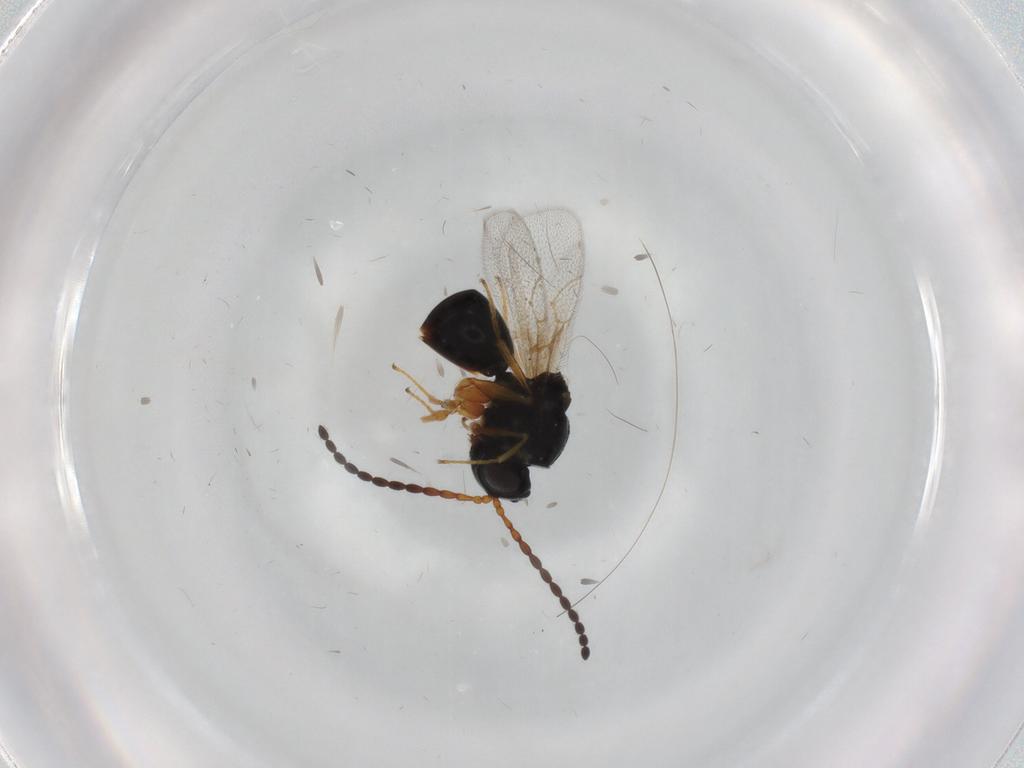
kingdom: Animalia
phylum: Arthropoda
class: Insecta
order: Hymenoptera
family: Figitidae
